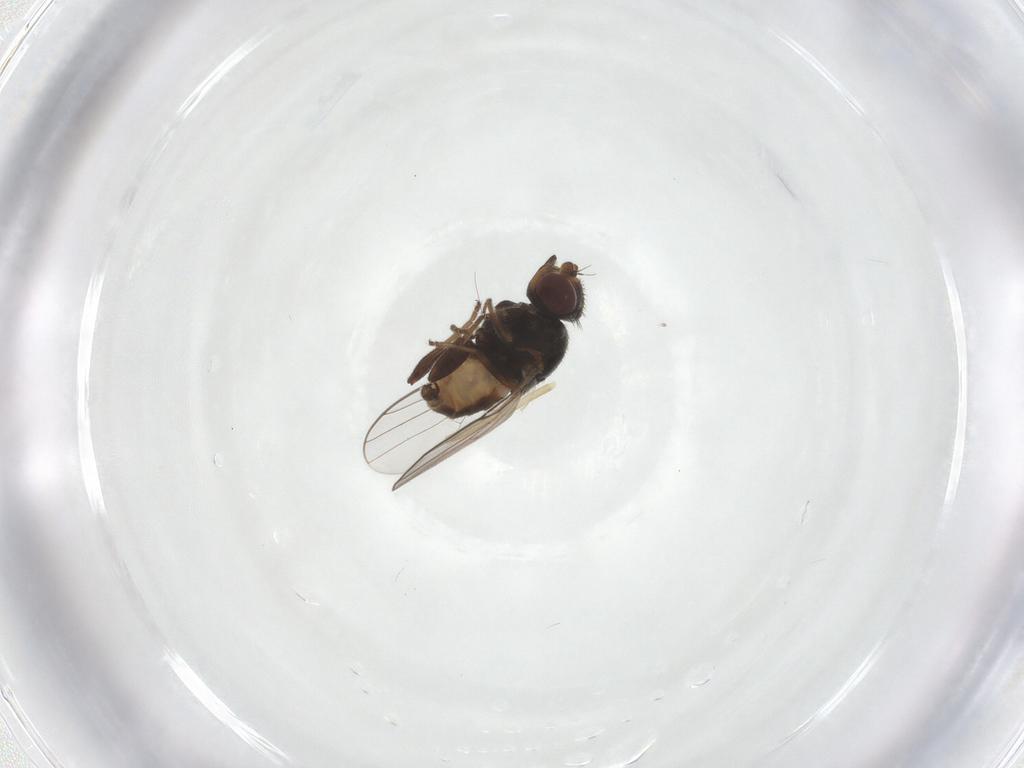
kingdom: Animalia
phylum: Arthropoda
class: Insecta
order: Diptera
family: Chloropidae
